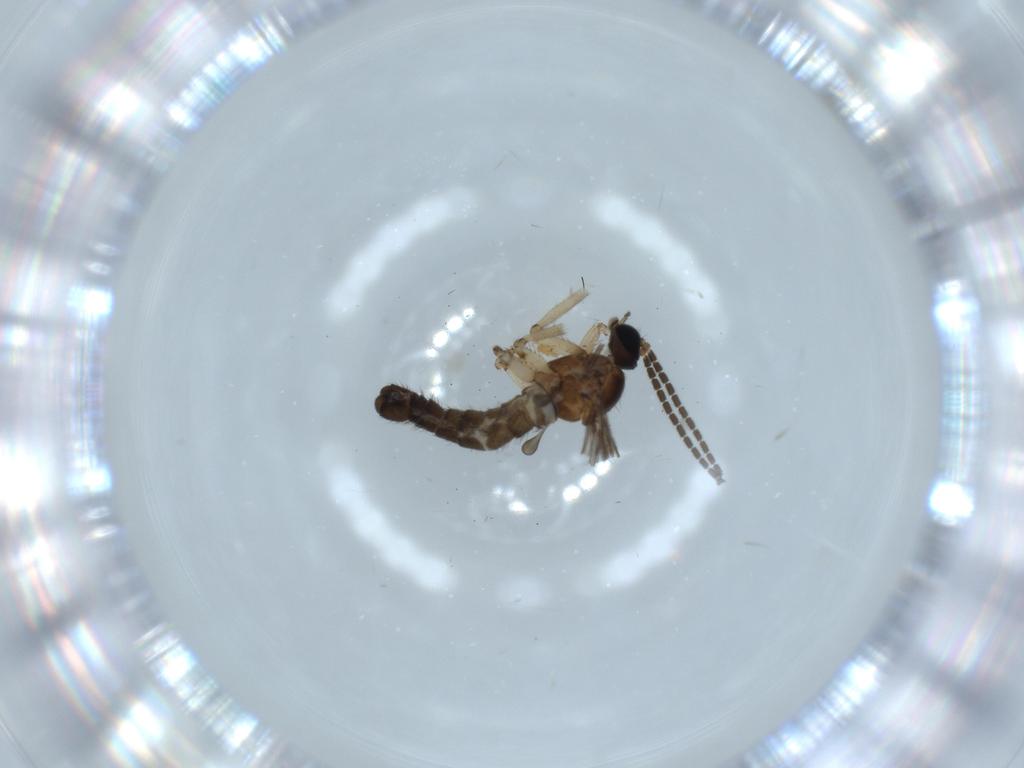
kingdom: Animalia
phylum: Arthropoda
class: Insecta
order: Diptera
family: Sciaridae
